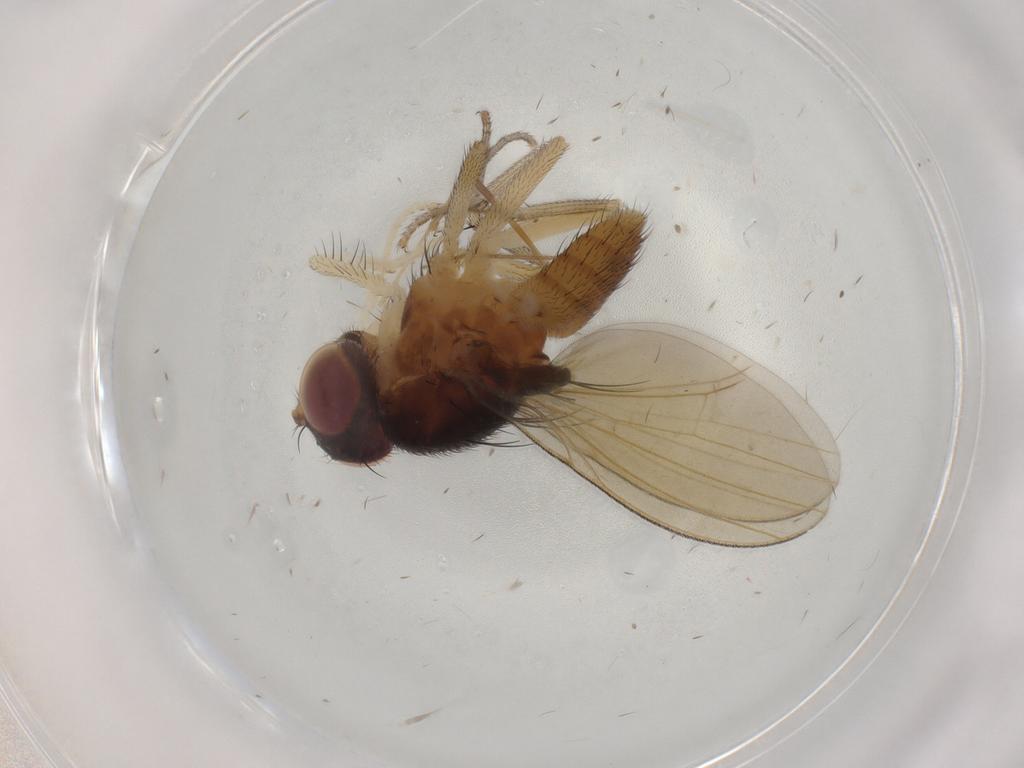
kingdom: Animalia
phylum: Arthropoda
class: Insecta
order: Diptera
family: Lauxaniidae
